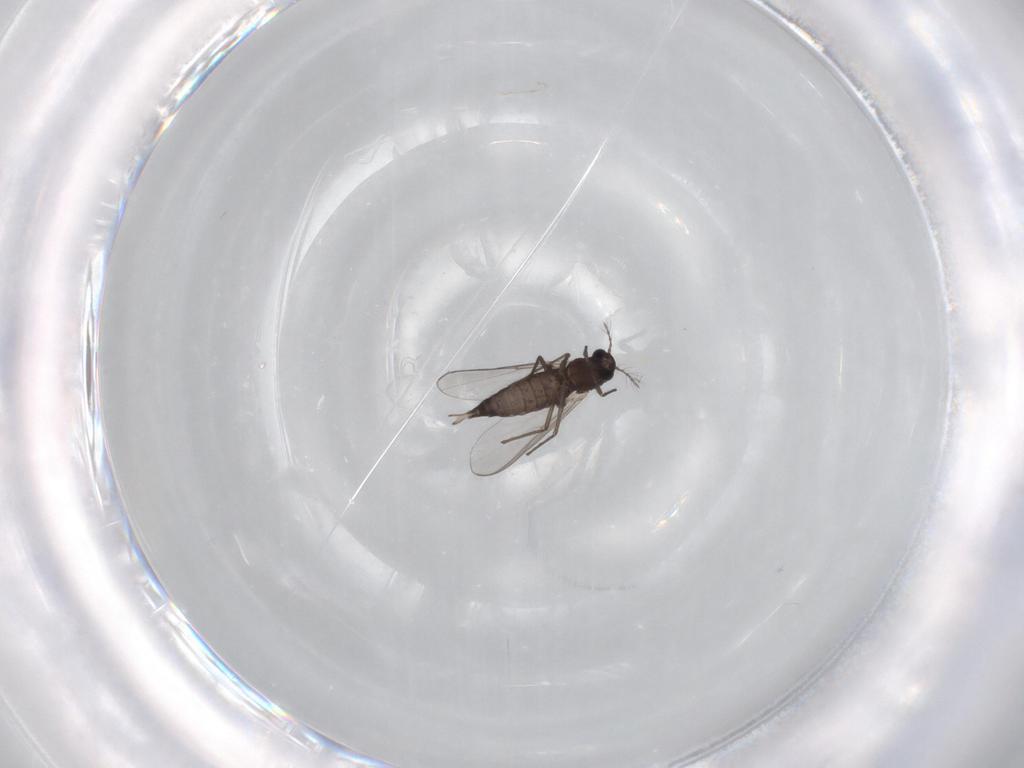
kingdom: Animalia
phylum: Arthropoda
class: Insecta
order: Diptera
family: Chironomidae
